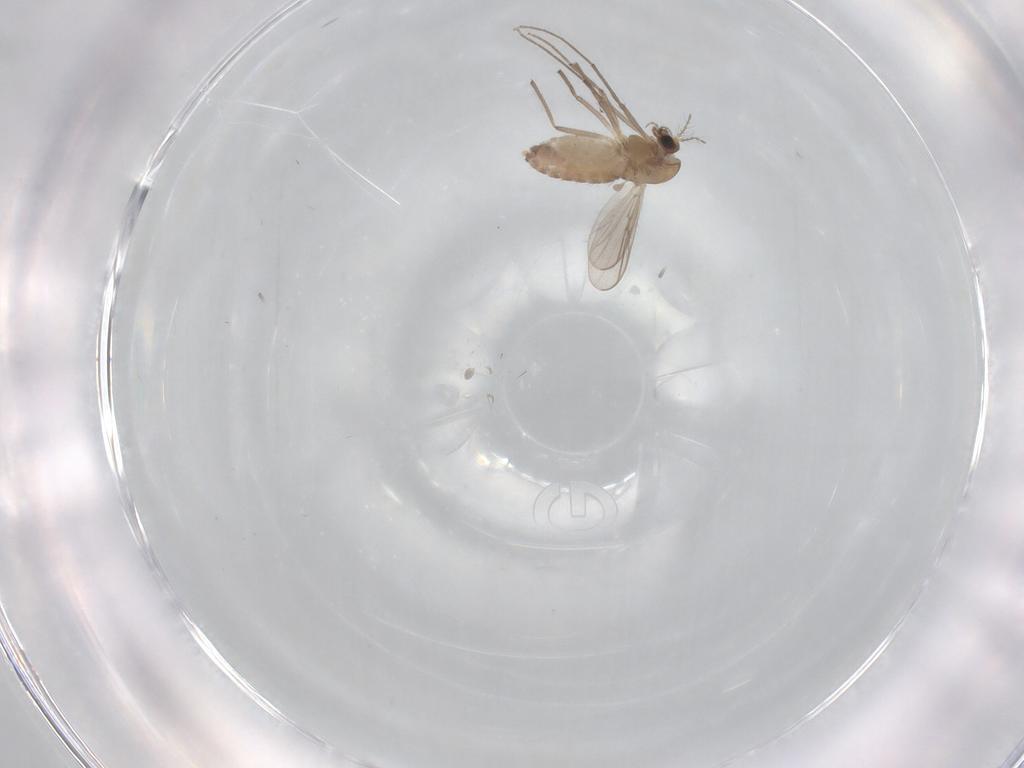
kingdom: Animalia
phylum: Arthropoda
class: Insecta
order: Diptera
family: Chironomidae
